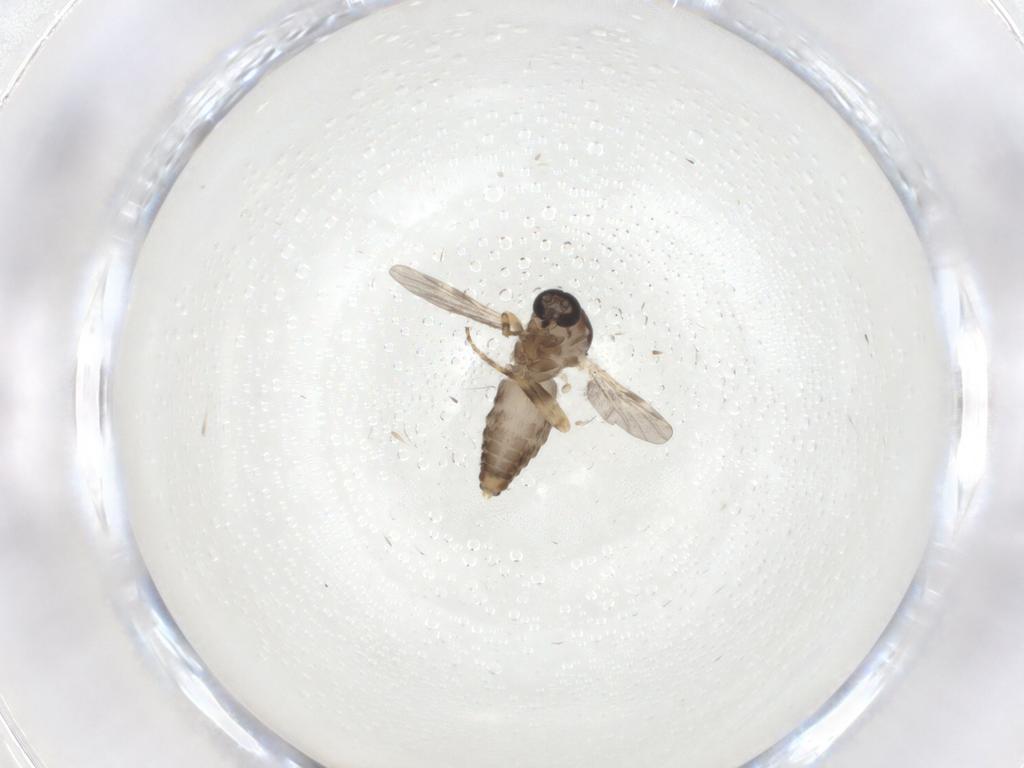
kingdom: Animalia
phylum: Arthropoda
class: Insecta
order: Diptera
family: Ceratopogonidae
